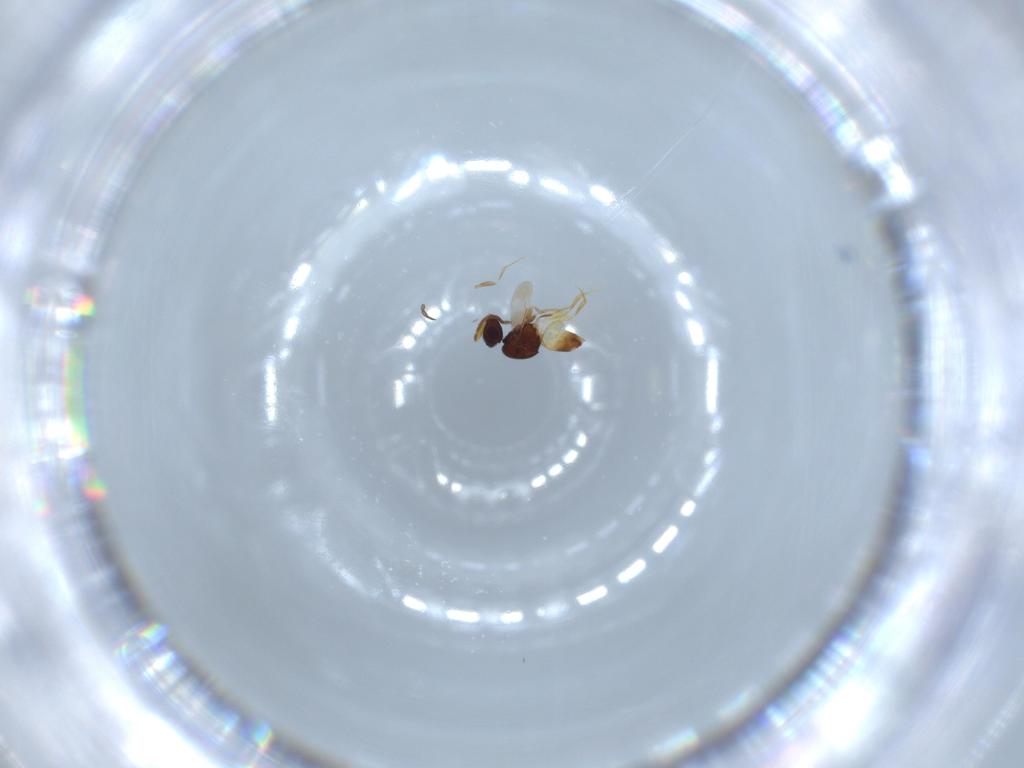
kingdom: Animalia
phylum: Arthropoda
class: Insecta
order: Hymenoptera
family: Ceraphronidae
